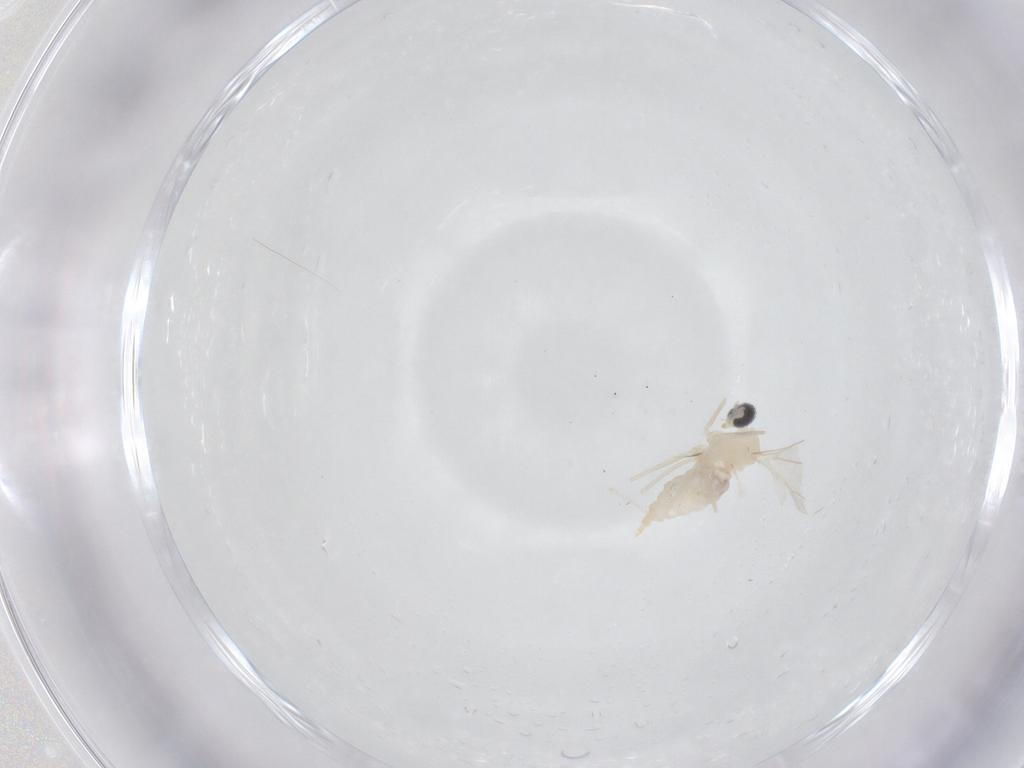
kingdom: Animalia
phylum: Arthropoda
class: Insecta
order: Diptera
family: Cecidomyiidae
